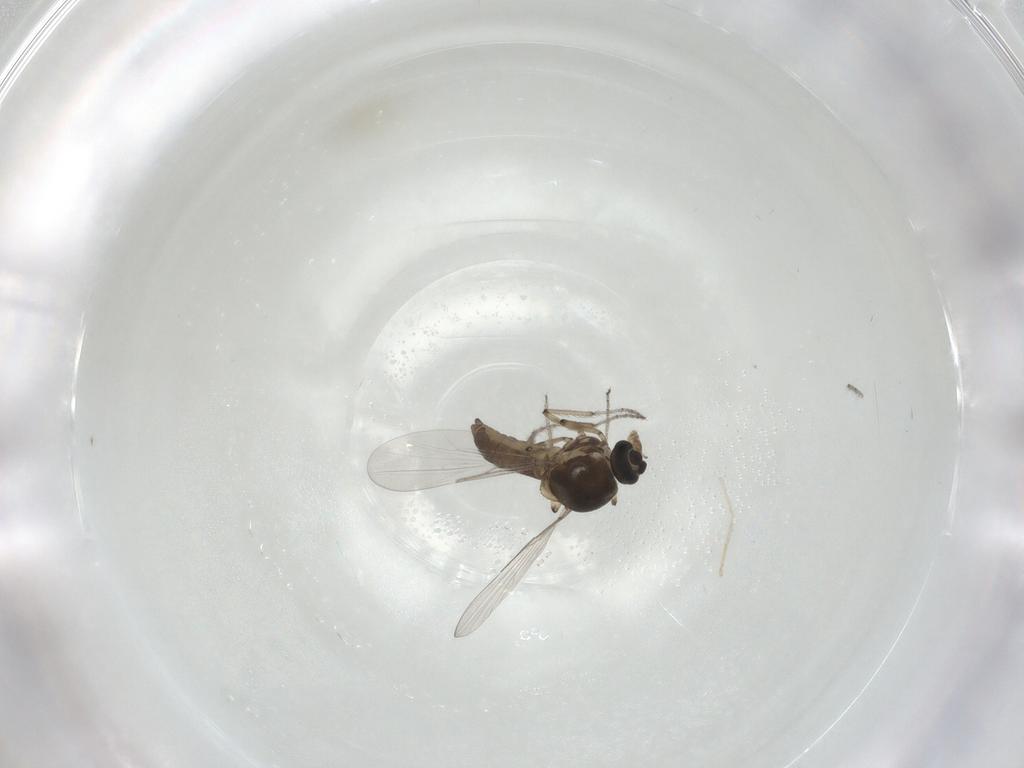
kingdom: Animalia
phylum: Arthropoda
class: Insecta
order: Diptera
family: Ceratopogonidae
